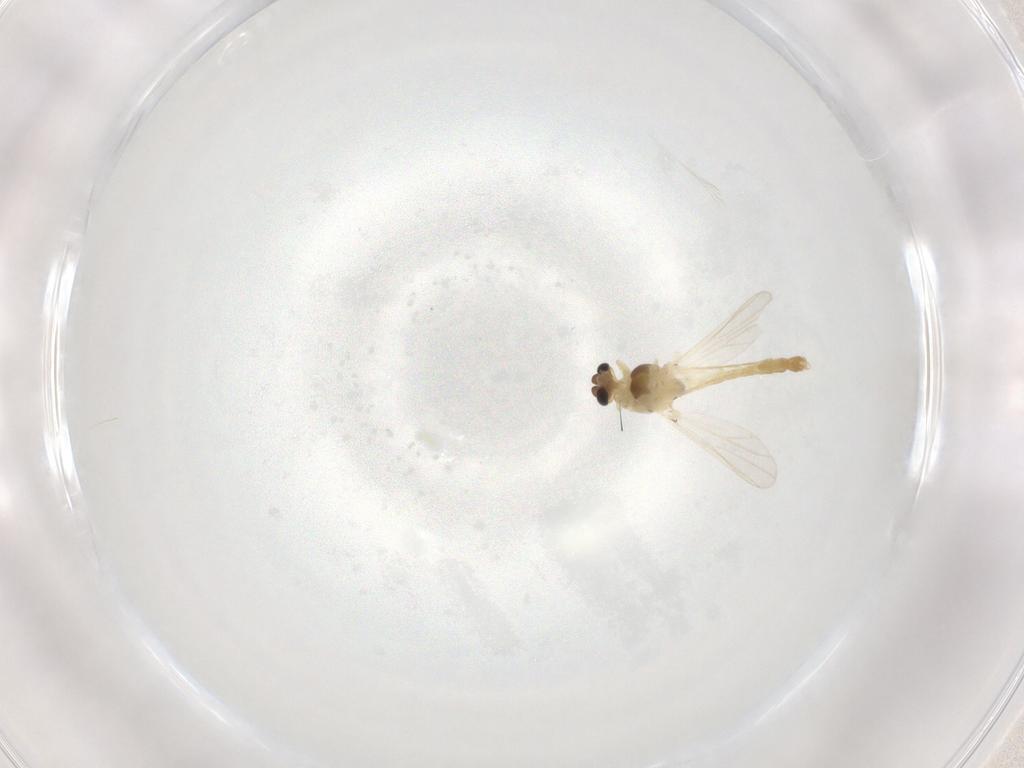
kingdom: Animalia
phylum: Arthropoda
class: Insecta
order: Diptera
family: Chironomidae
